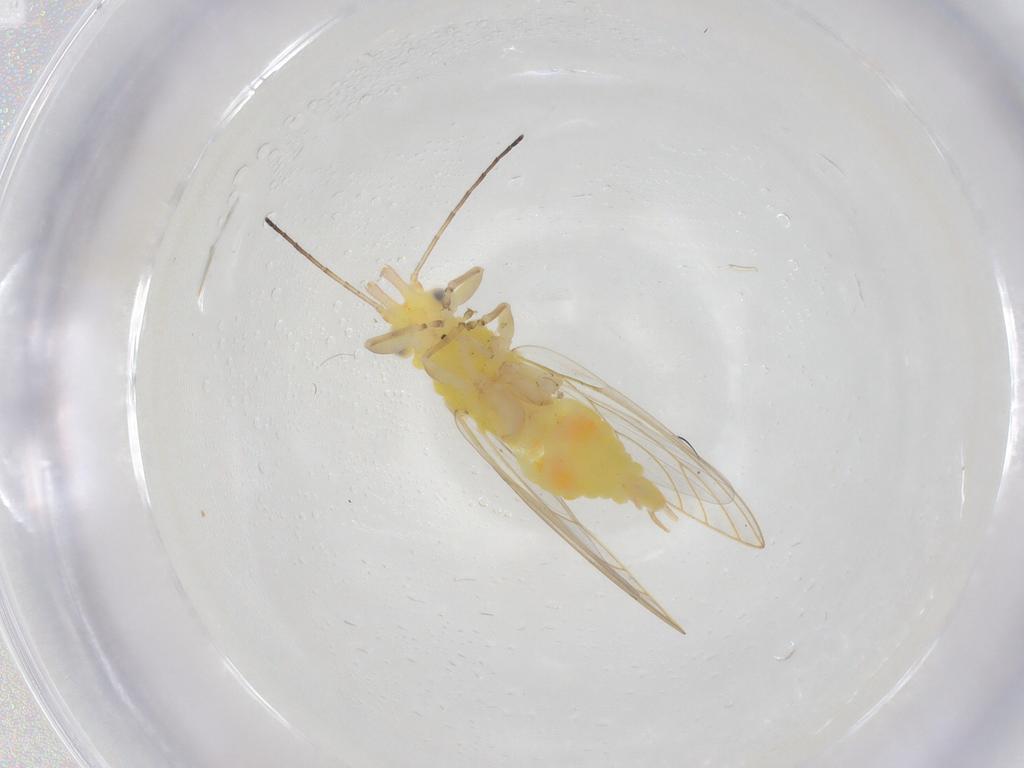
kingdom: Animalia
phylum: Arthropoda
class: Insecta
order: Hemiptera
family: Aphalaridae
